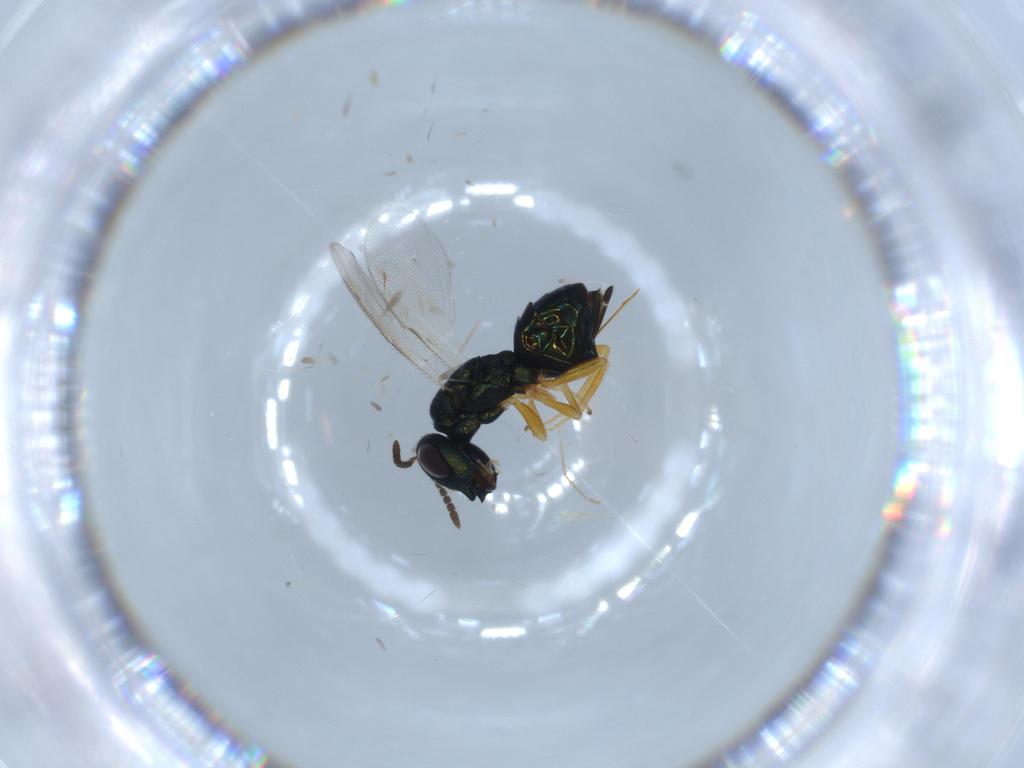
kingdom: Animalia
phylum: Arthropoda
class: Insecta
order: Hymenoptera
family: Pteromalidae
